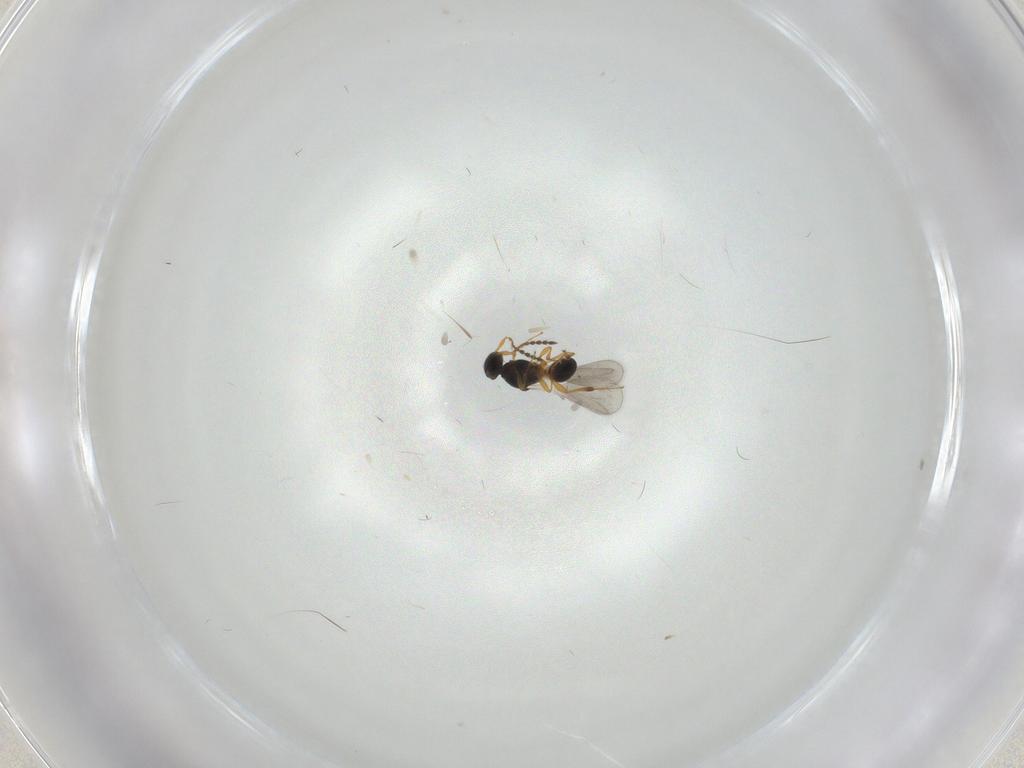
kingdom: Animalia
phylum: Arthropoda
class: Insecta
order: Hymenoptera
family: Platygastridae
